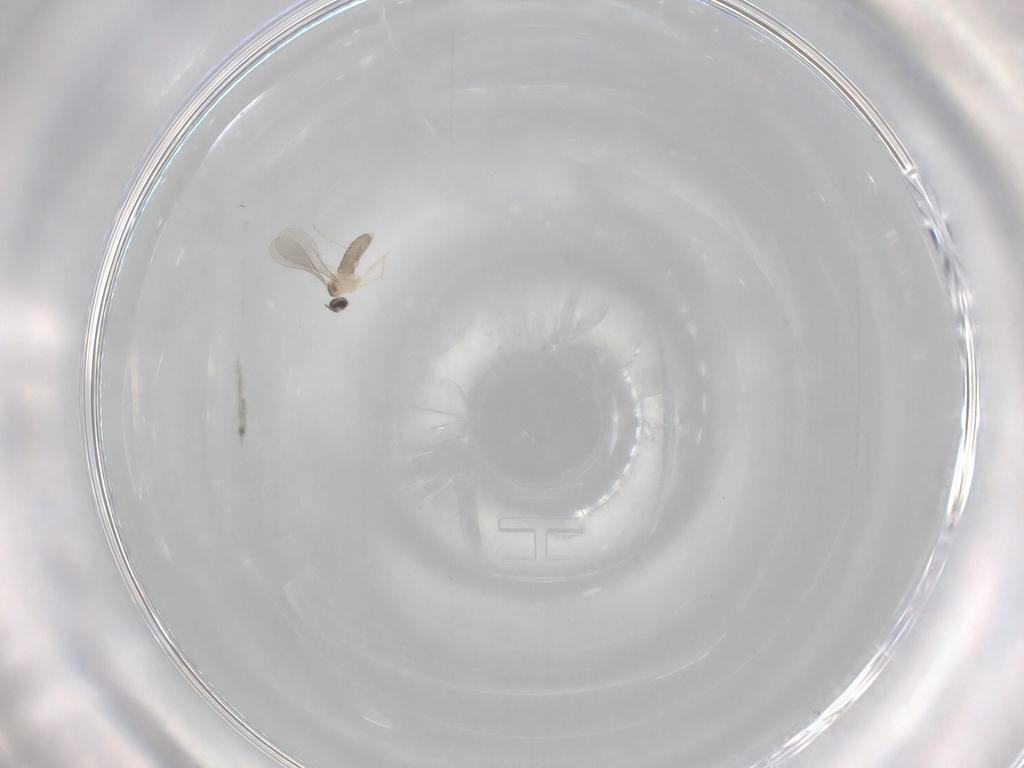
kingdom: Animalia
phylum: Arthropoda
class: Insecta
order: Diptera
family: Cecidomyiidae
